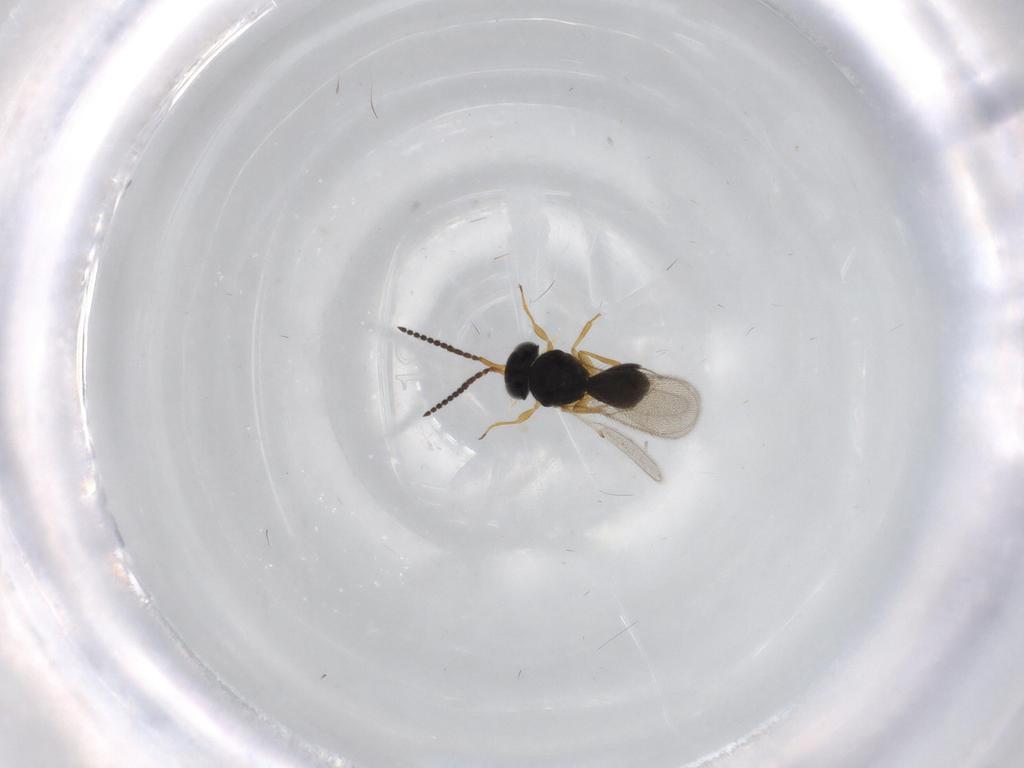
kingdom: Animalia
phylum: Arthropoda
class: Insecta
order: Hymenoptera
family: Scelionidae
